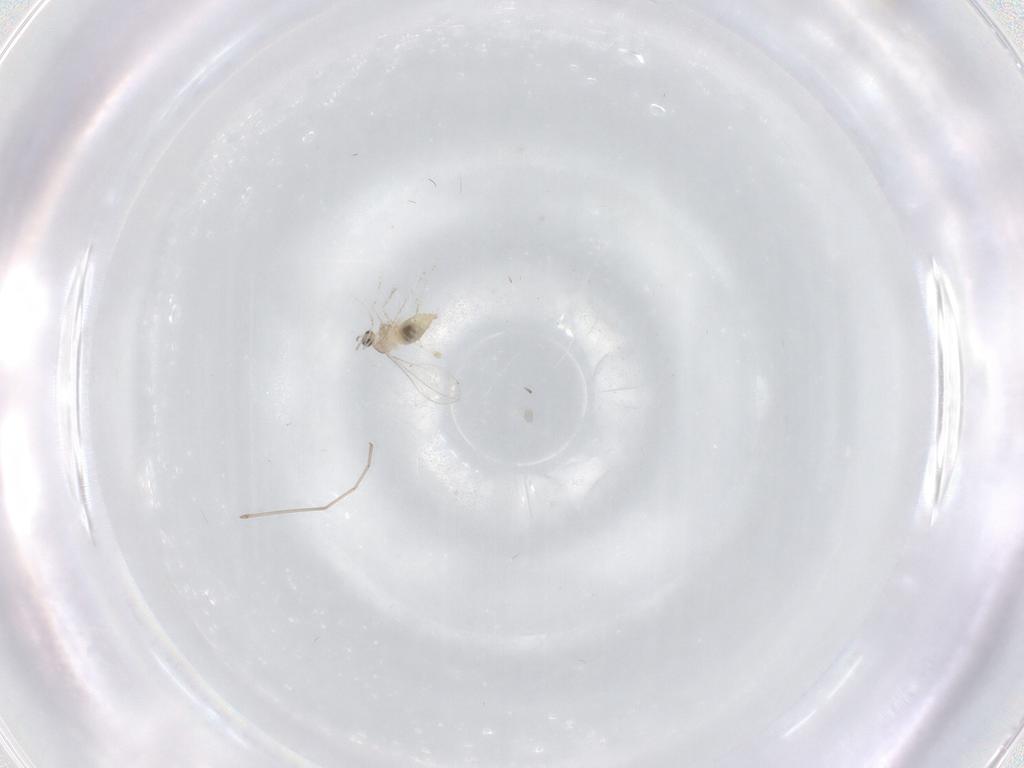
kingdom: Animalia
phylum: Arthropoda
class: Insecta
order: Diptera
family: Cecidomyiidae
